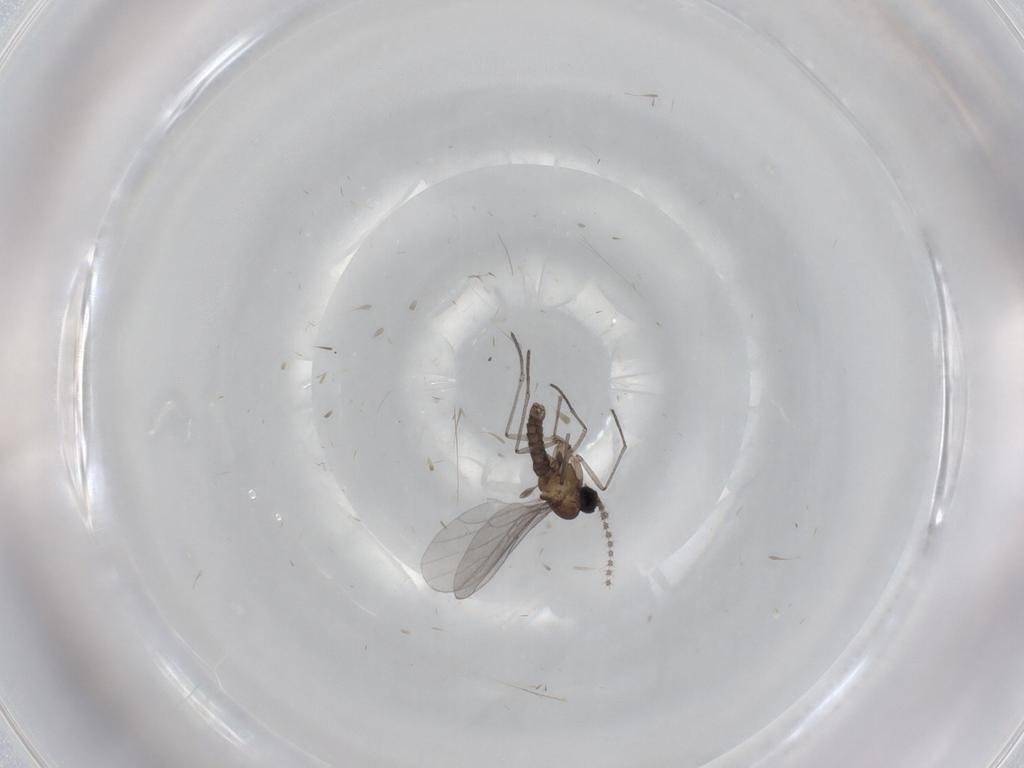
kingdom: Animalia
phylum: Arthropoda
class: Insecta
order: Diptera
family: Sciaridae
